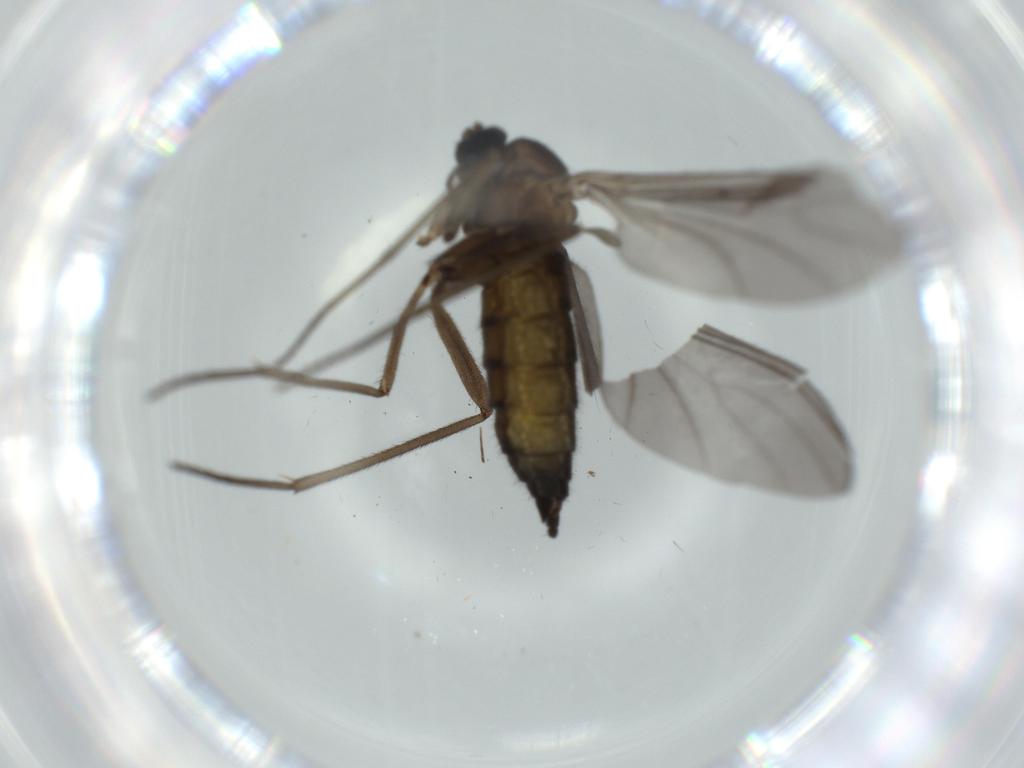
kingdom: Animalia
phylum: Arthropoda
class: Insecta
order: Diptera
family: Sciaridae
